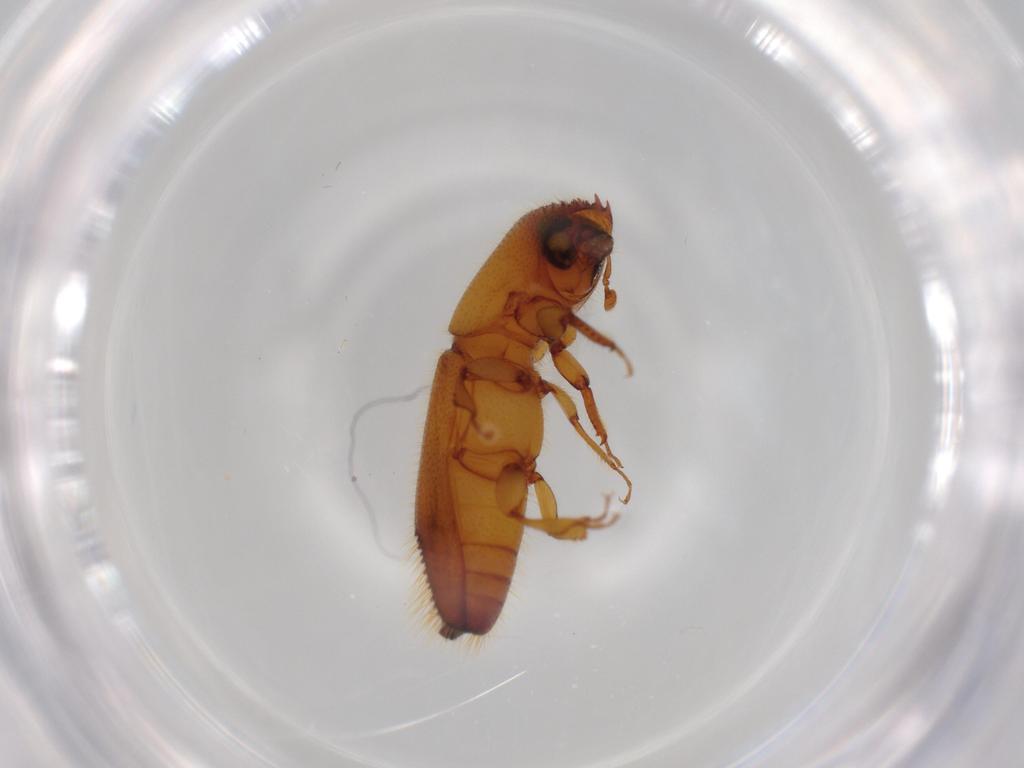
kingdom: Animalia
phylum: Arthropoda
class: Insecta
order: Coleoptera
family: Curculionidae
